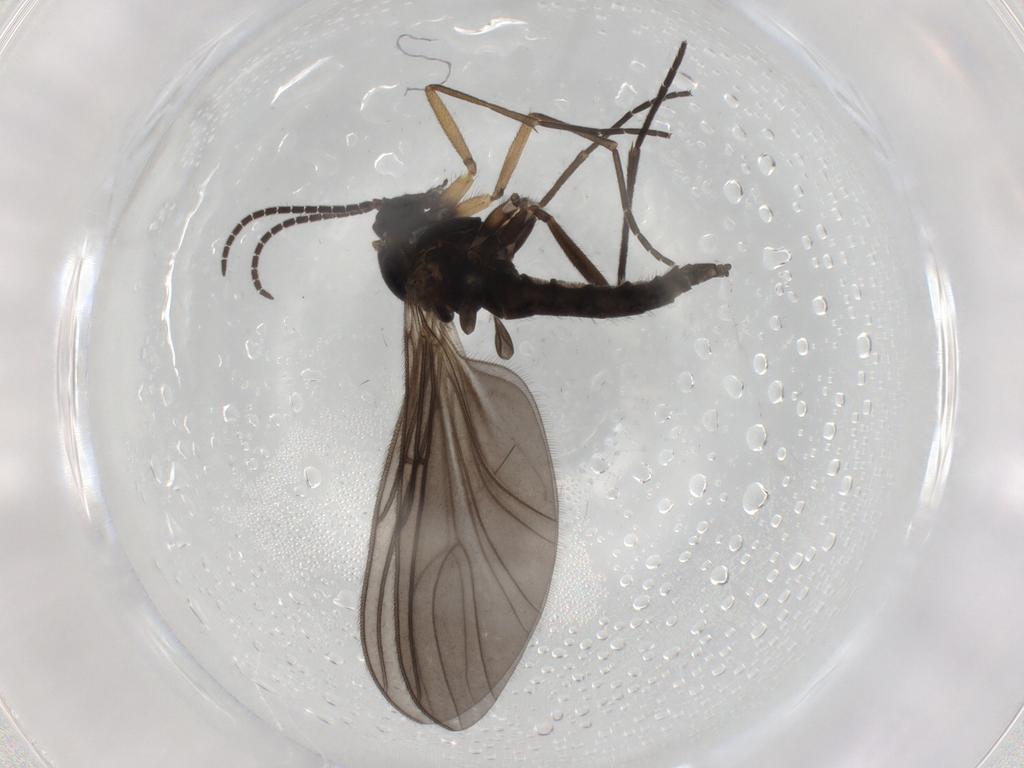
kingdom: Animalia
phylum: Arthropoda
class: Insecta
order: Diptera
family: Sciaridae
